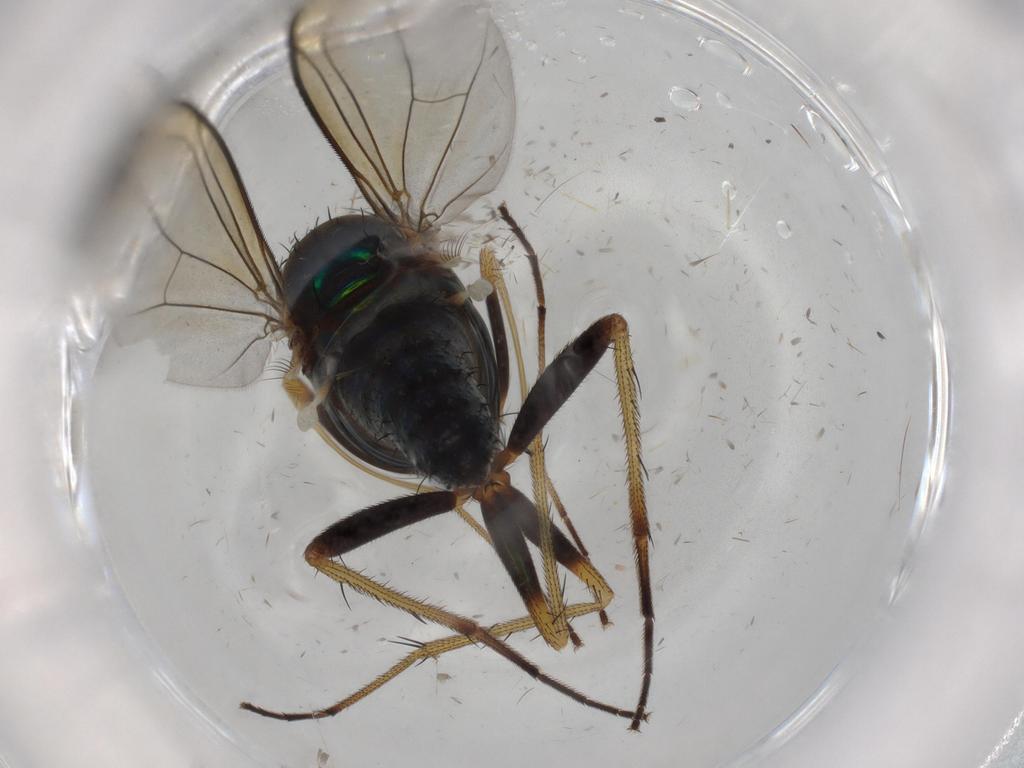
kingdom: Animalia
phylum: Arthropoda
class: Insecta
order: Diptera
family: Dolichopodidae
